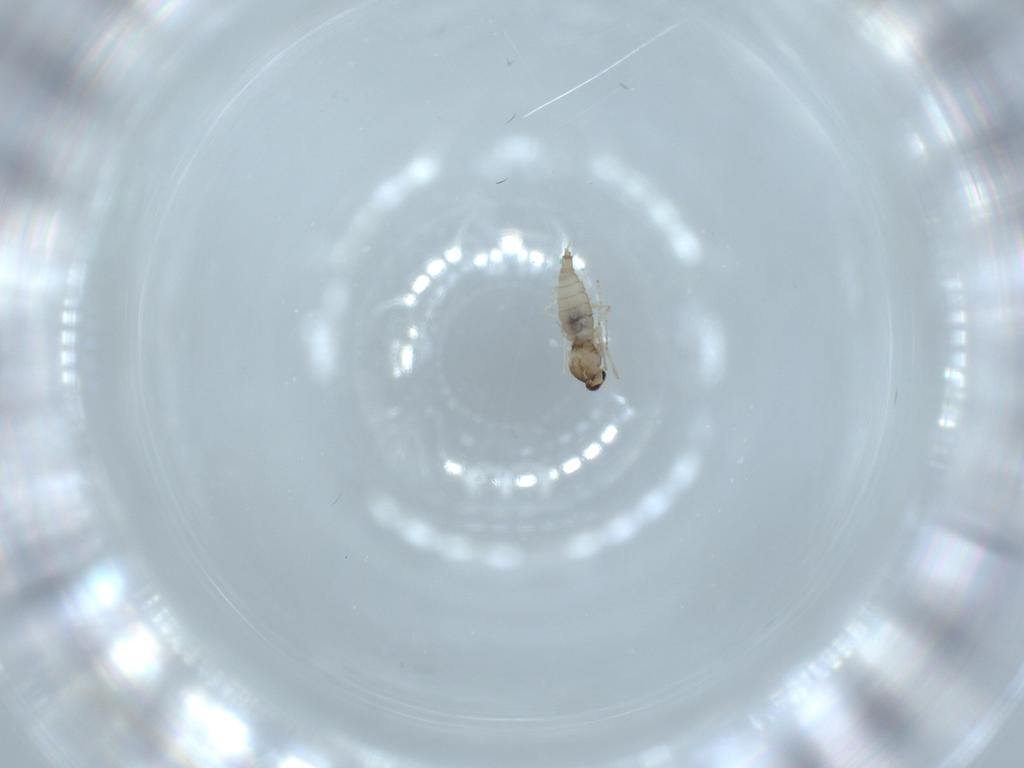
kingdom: Animalia
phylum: Arthropoda
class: Insecta
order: Diptera
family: Cecidomyiidae
